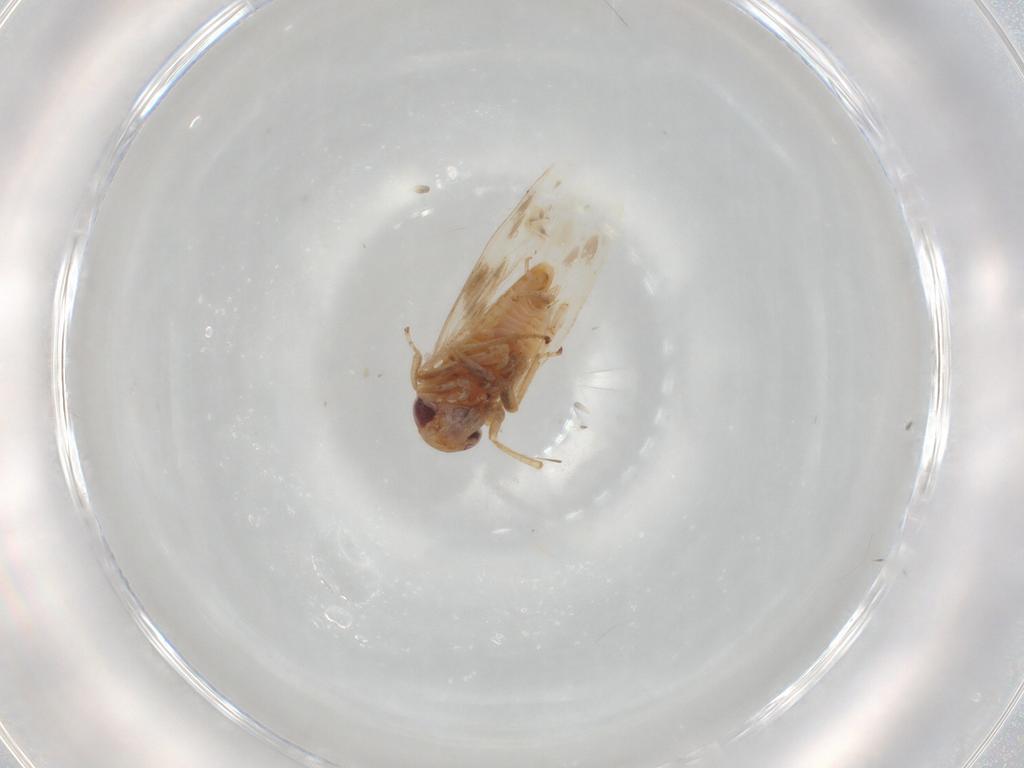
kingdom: Animalia
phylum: Arthropoda
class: Insecta
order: Hemiptera
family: Cicadellidae
